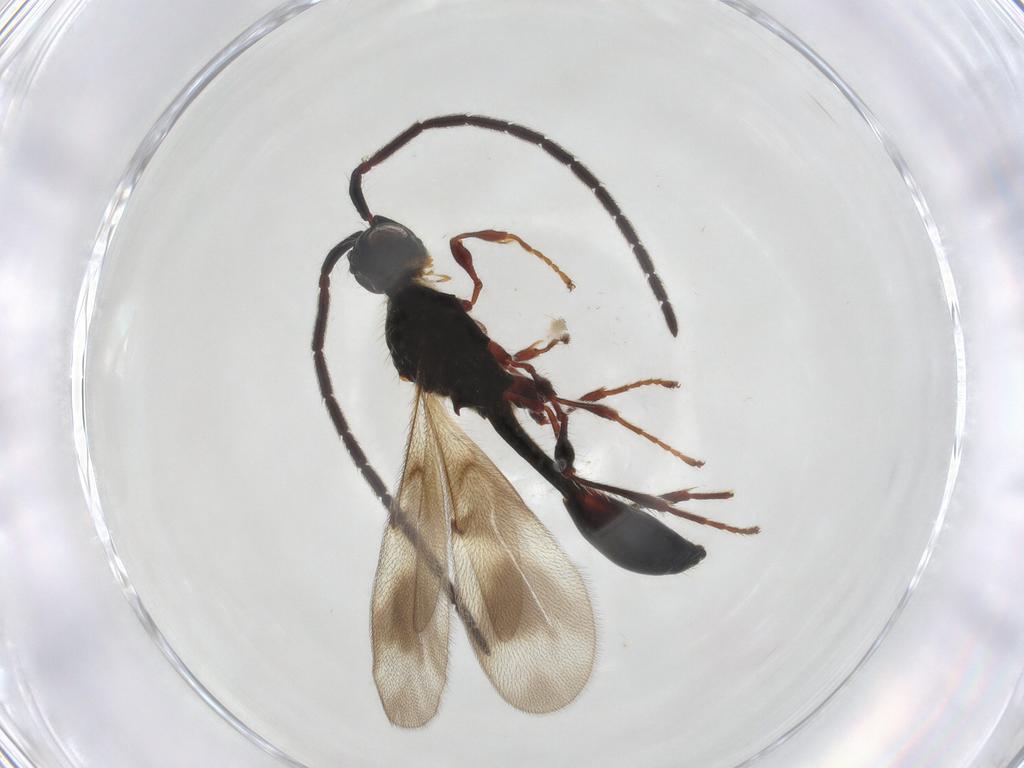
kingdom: Animalia
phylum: Arthropoda
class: Insecta
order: Hymenoptera
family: Diapriidae
